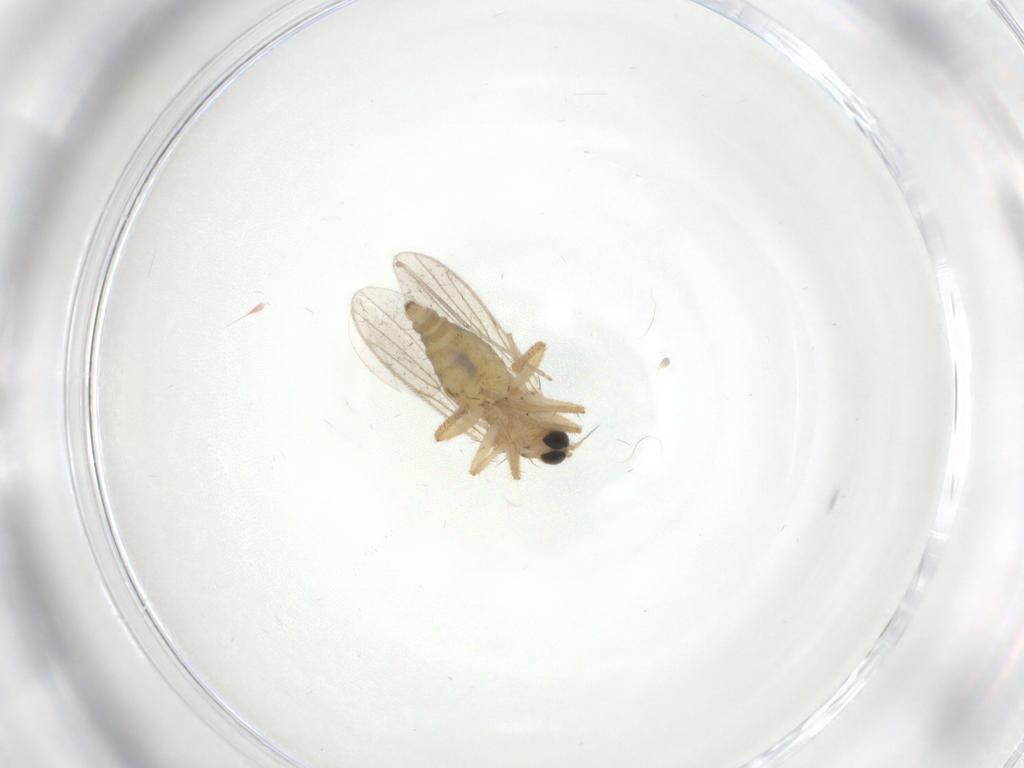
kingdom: Animalia
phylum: Arthropoda
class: Insecta
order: Diptera
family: Hybotidae
